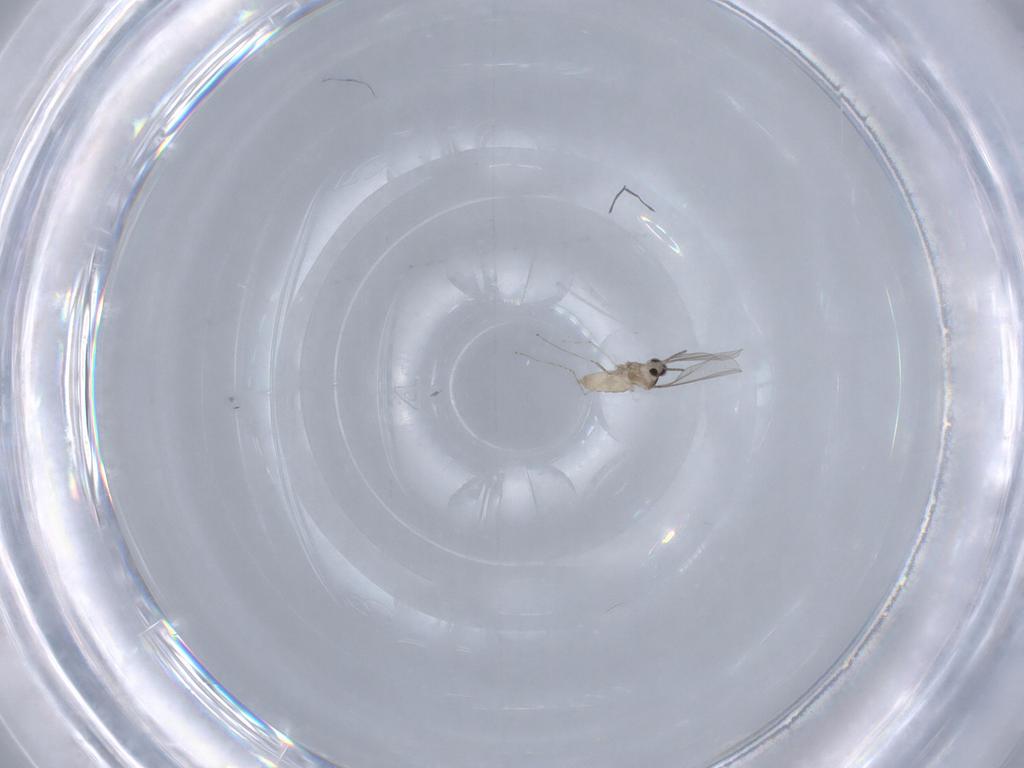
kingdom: Animalia
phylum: Arthropoda
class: Insecta
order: Diptera
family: Cecidomyiidae
